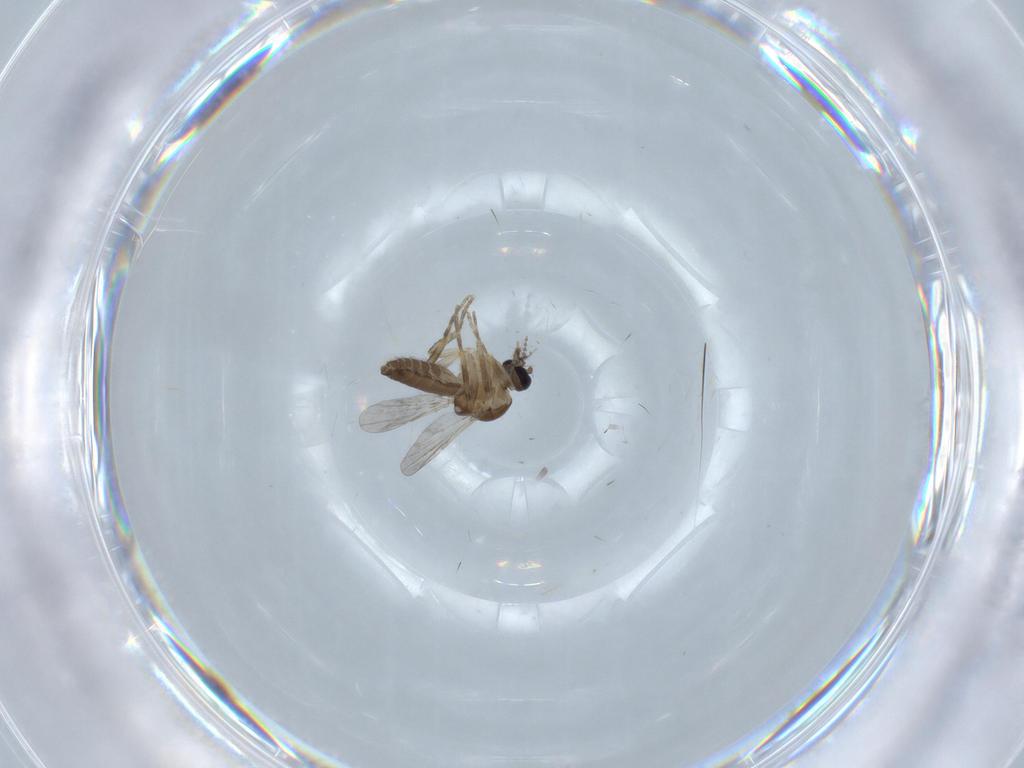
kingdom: Animalia
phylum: Arthropoda
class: Insecta
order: Diptera
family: Ceratopogonidae
